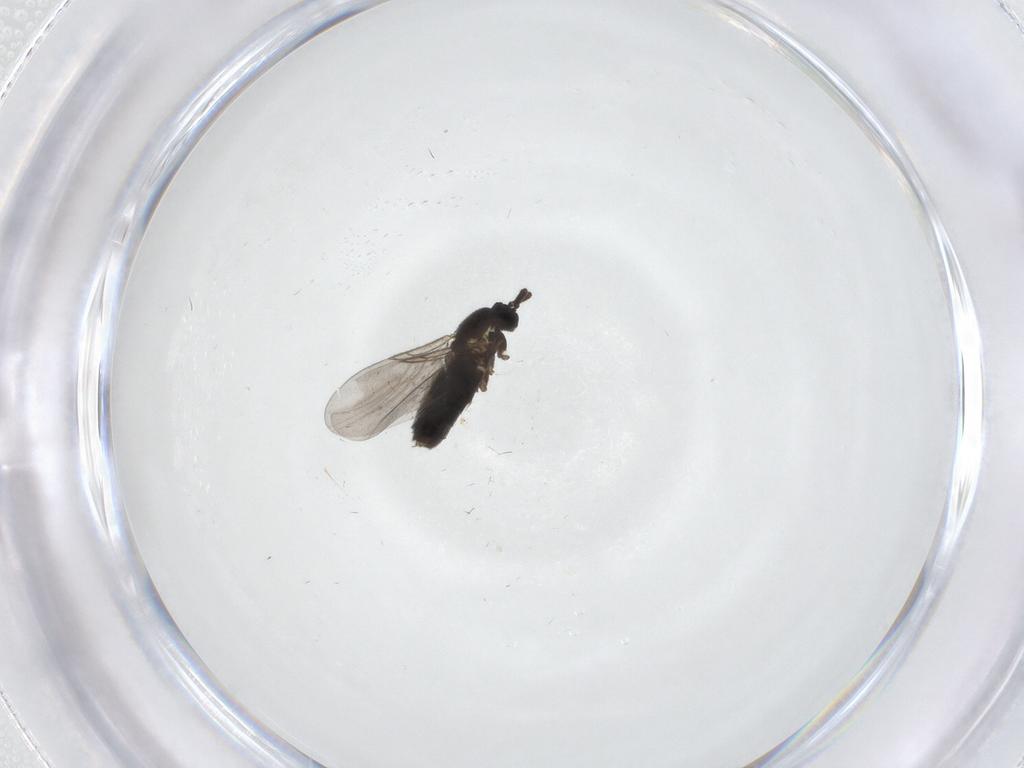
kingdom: Animalia
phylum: Arthropoda
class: Insecta
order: Diptera
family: Scatopsidae
